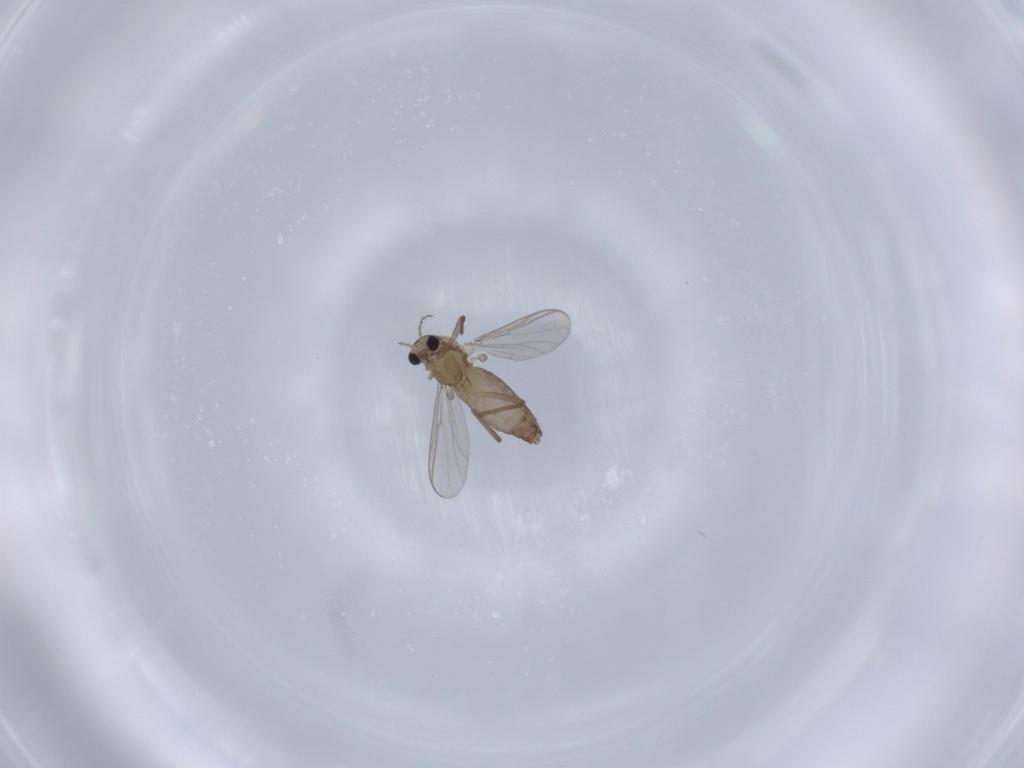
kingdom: Animalia
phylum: Arthropoda
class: Insecta
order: Diptera
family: Chironomidae
